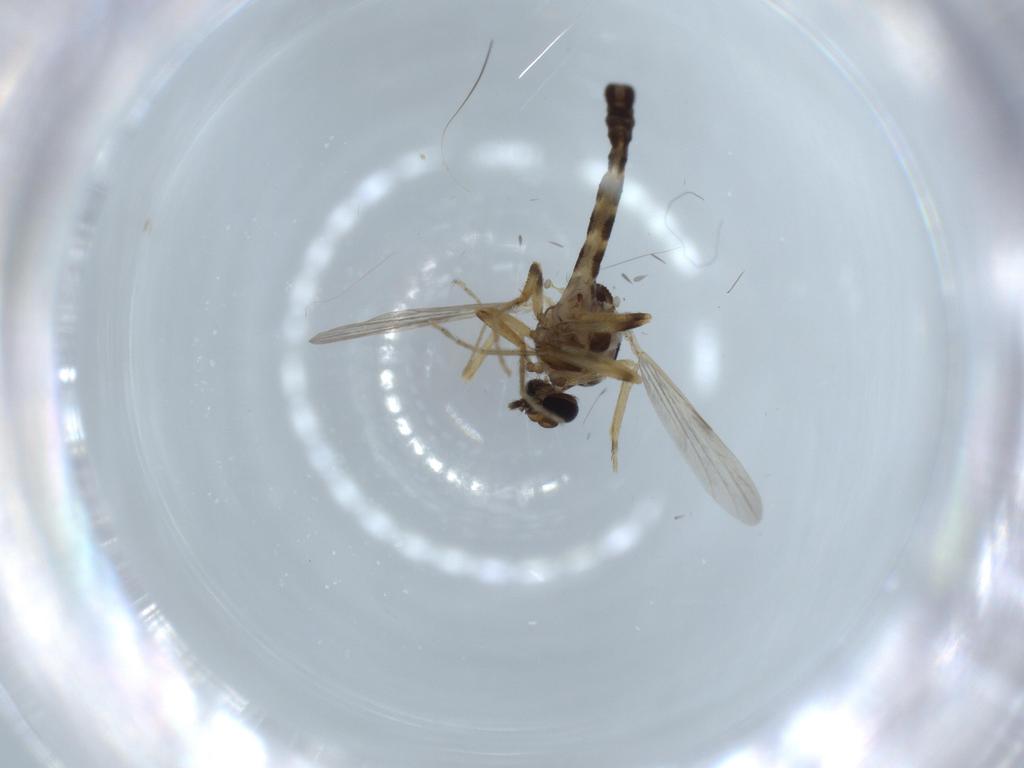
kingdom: Animalia
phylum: Arthropoda
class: Insecta
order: Diptera
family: Ceratopogonidae
